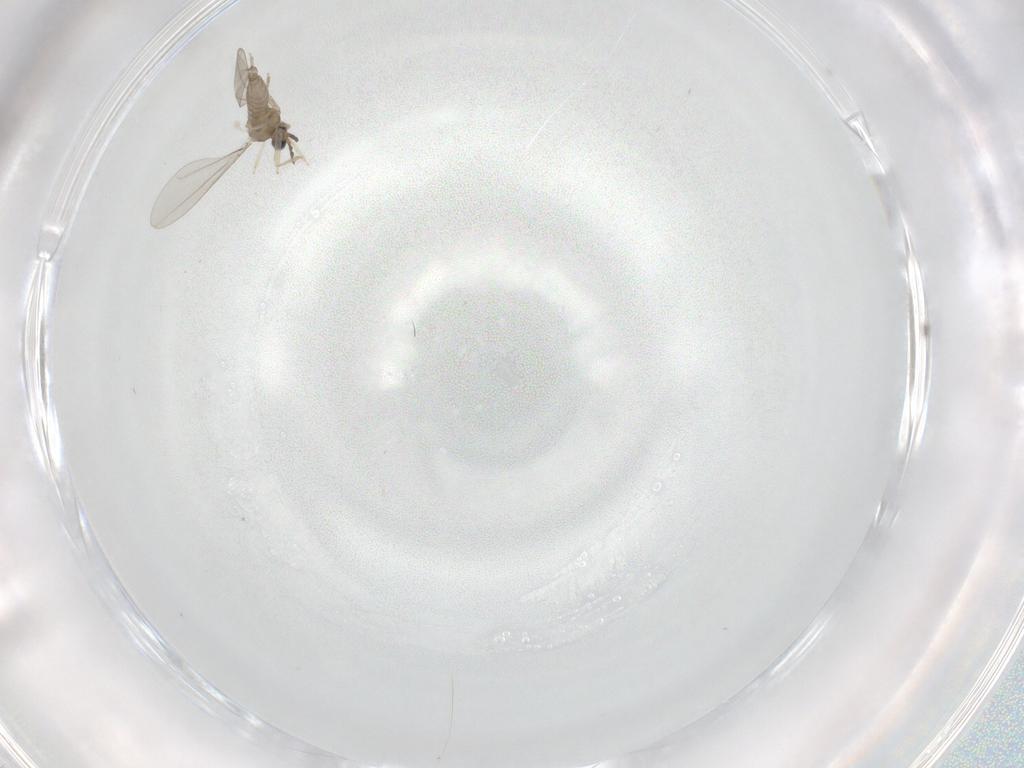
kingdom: Animalia
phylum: Arthropoda
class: Insecta
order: Diptera
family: Cecidomyiidae
